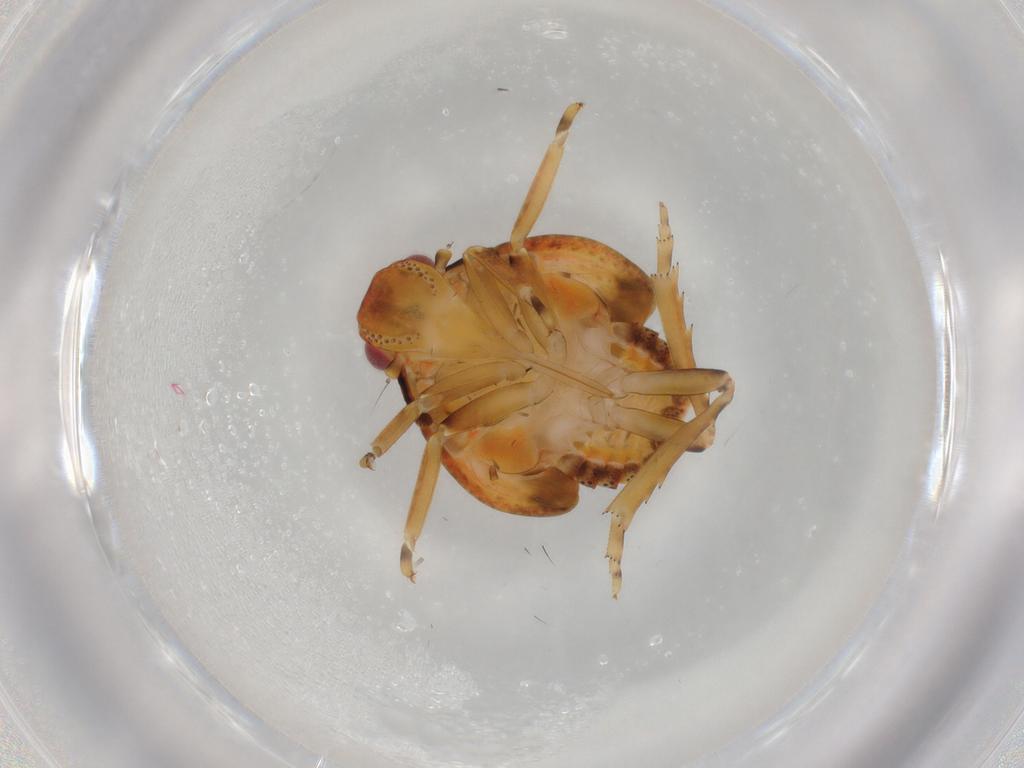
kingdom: Animalia
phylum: Arthropoda
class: Insecta
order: Hemiptera
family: Flatidae
